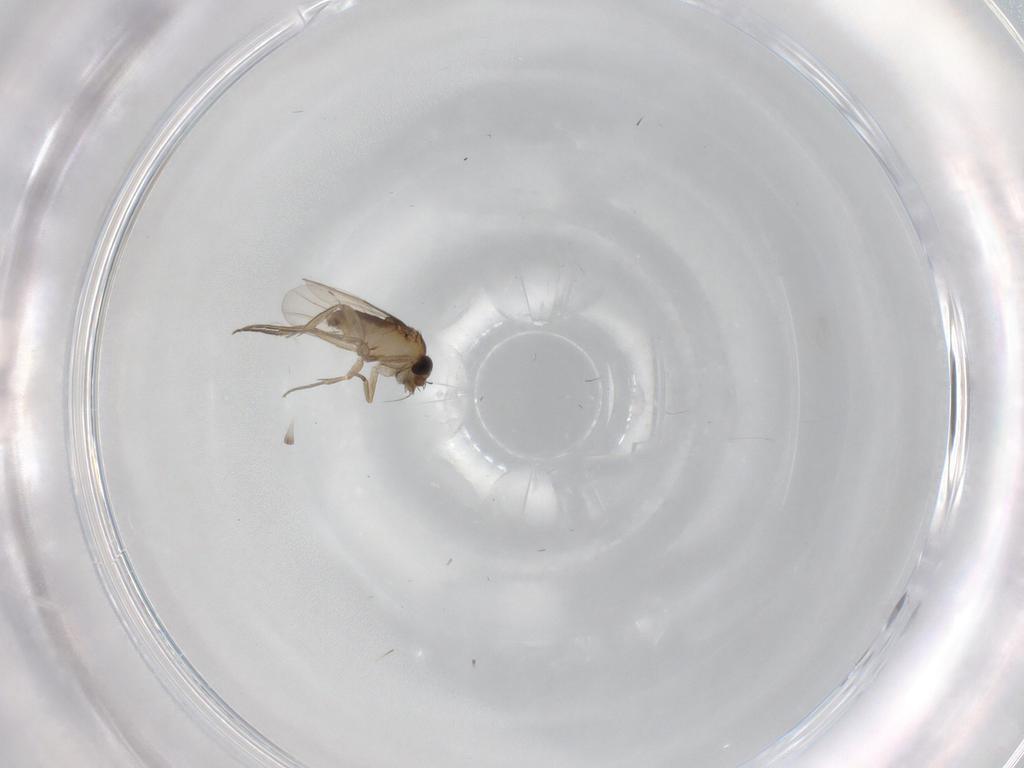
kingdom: Animalia
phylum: Arthropoda
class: Insecta
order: Diptera
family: Phoridae
